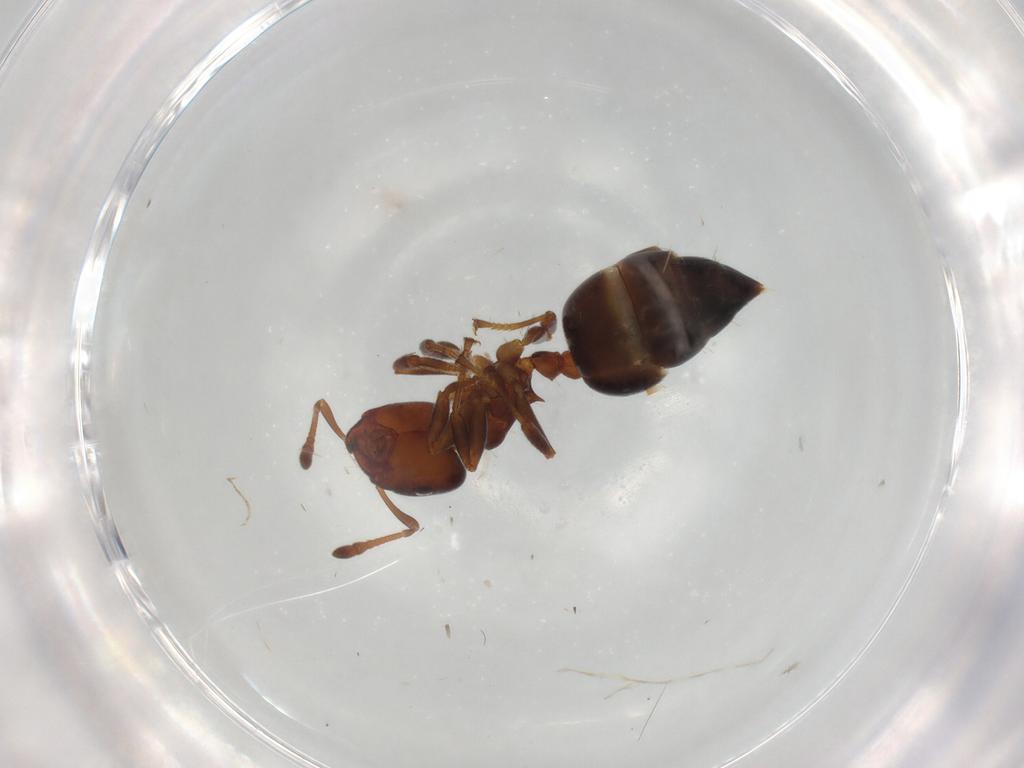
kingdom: Animalia
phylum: Arthropoda
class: Insecta
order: Hymenoptera
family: Formicidae
